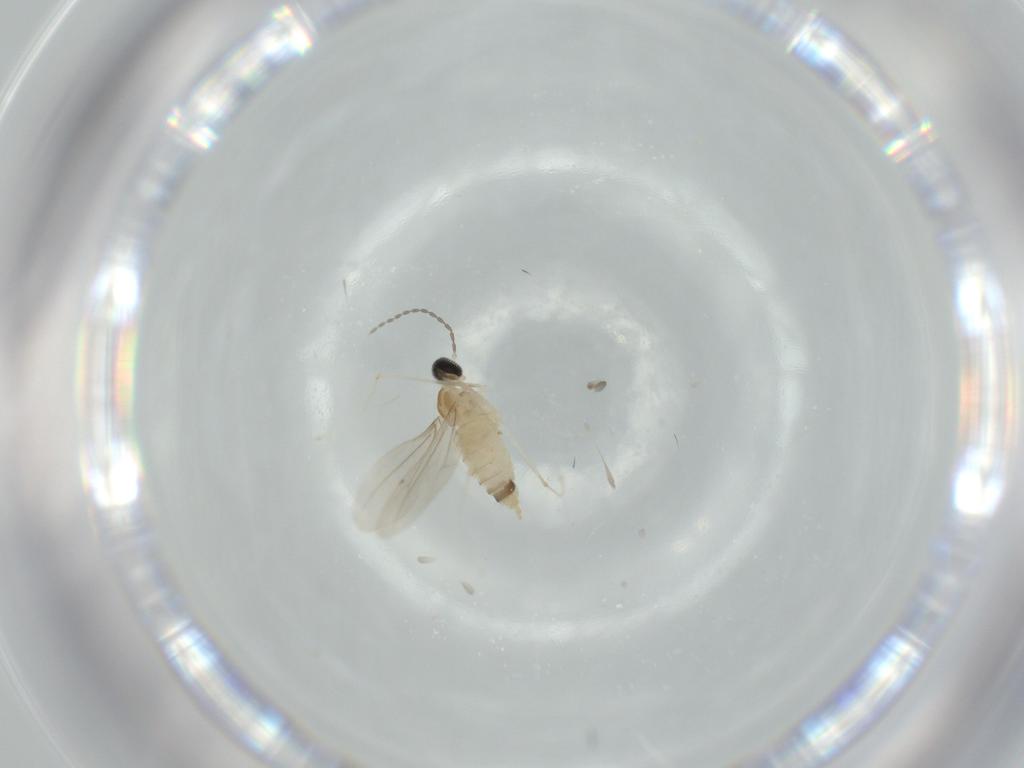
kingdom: Animalia
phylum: Arthropoda
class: Insecta
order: Diptera
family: Cecidomyiidae
